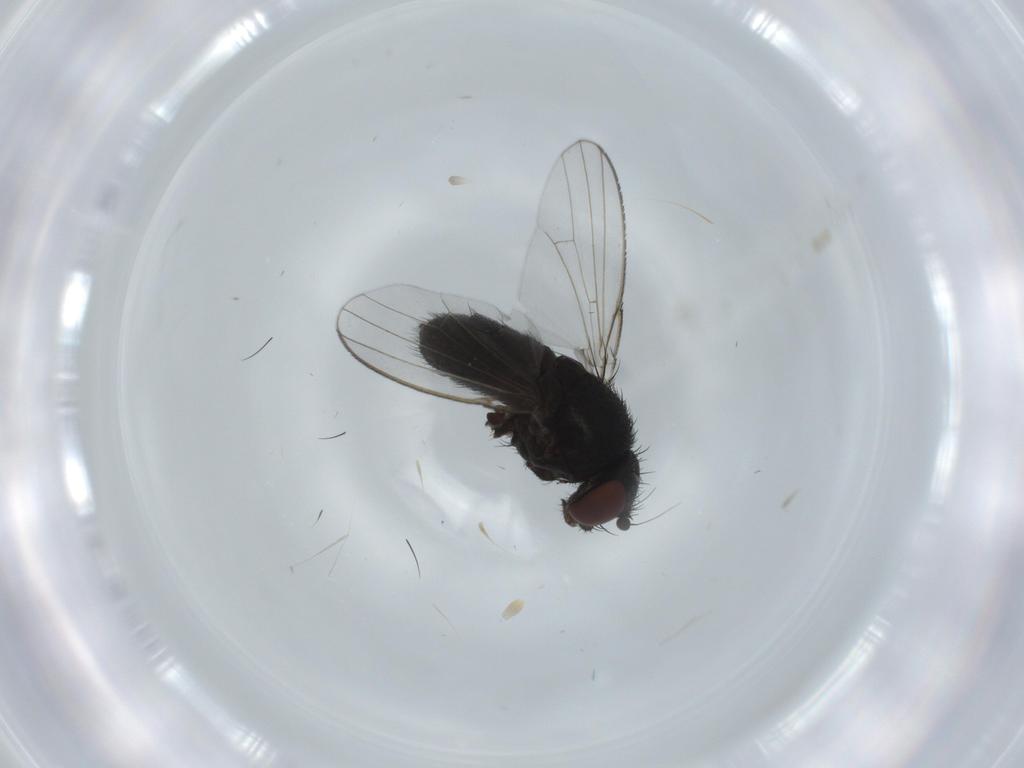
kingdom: Animalia
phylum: Arthropoda
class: Insecta
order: Diptera
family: Milichiidae
